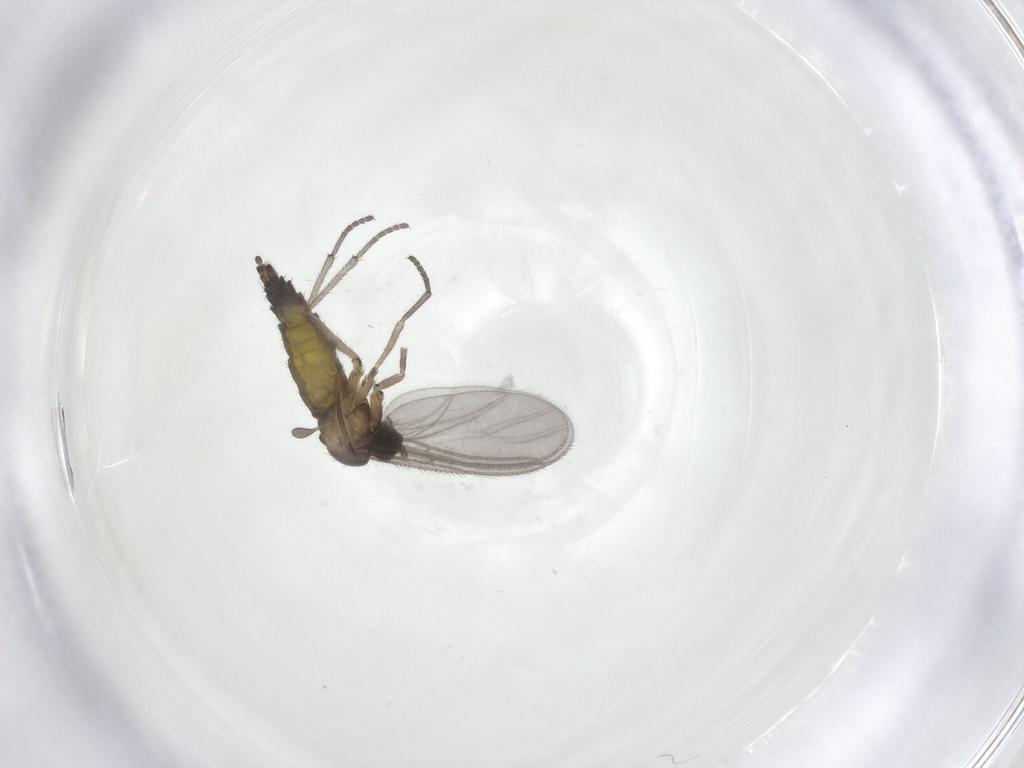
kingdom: Animalia
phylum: Arthropoda
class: Insecta
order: Diptera
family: Sciaridae
